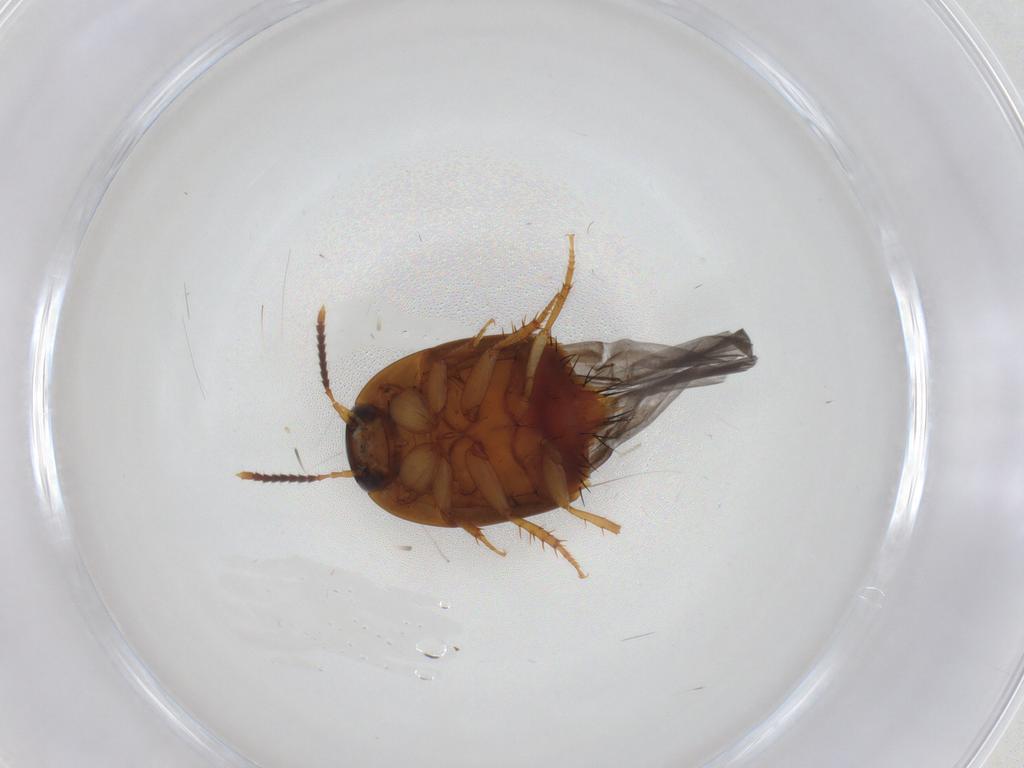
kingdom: Animalia
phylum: Arthropoda
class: Insecta
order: Coleoptera
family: Staphylinidae
